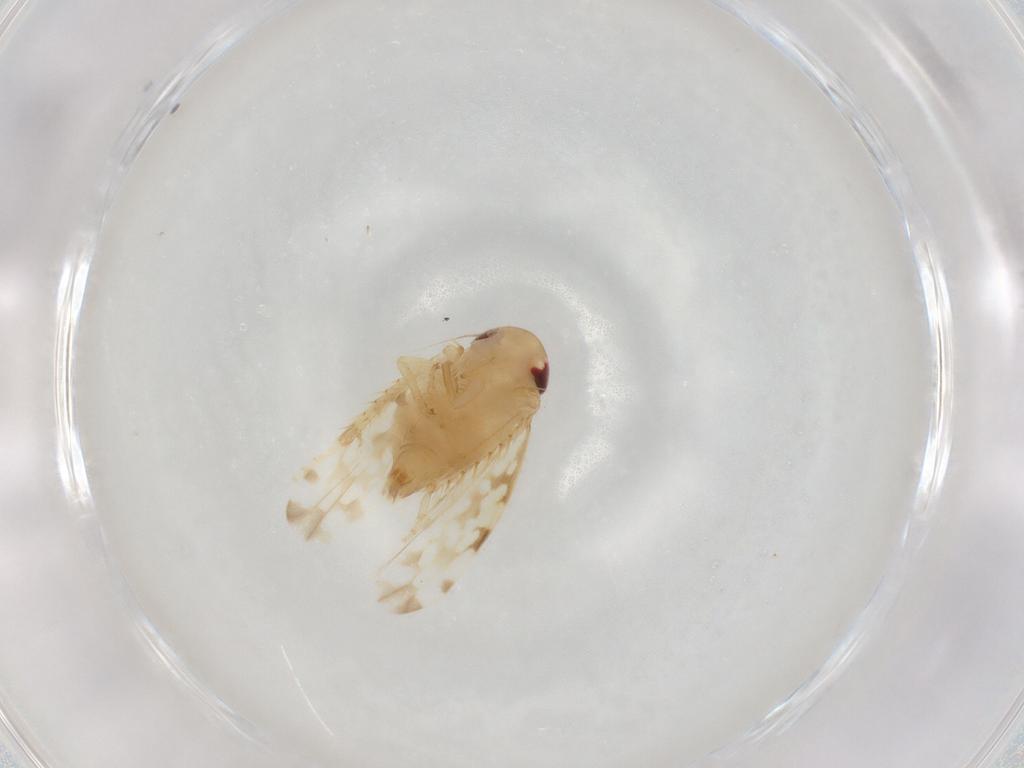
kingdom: Animalia
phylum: Arthropoda
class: Insecta
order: Hemiptera
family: Cicadellidae
